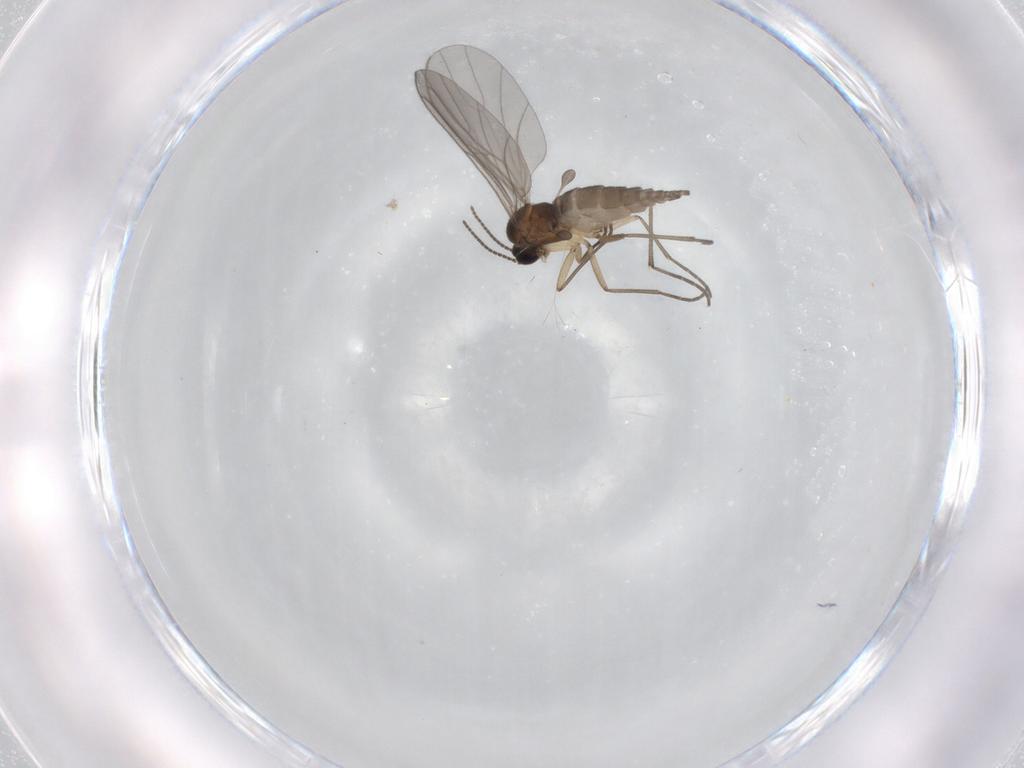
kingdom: Animalia
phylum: Arthropoda
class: Insecta
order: Diptera
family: Sciaridae
